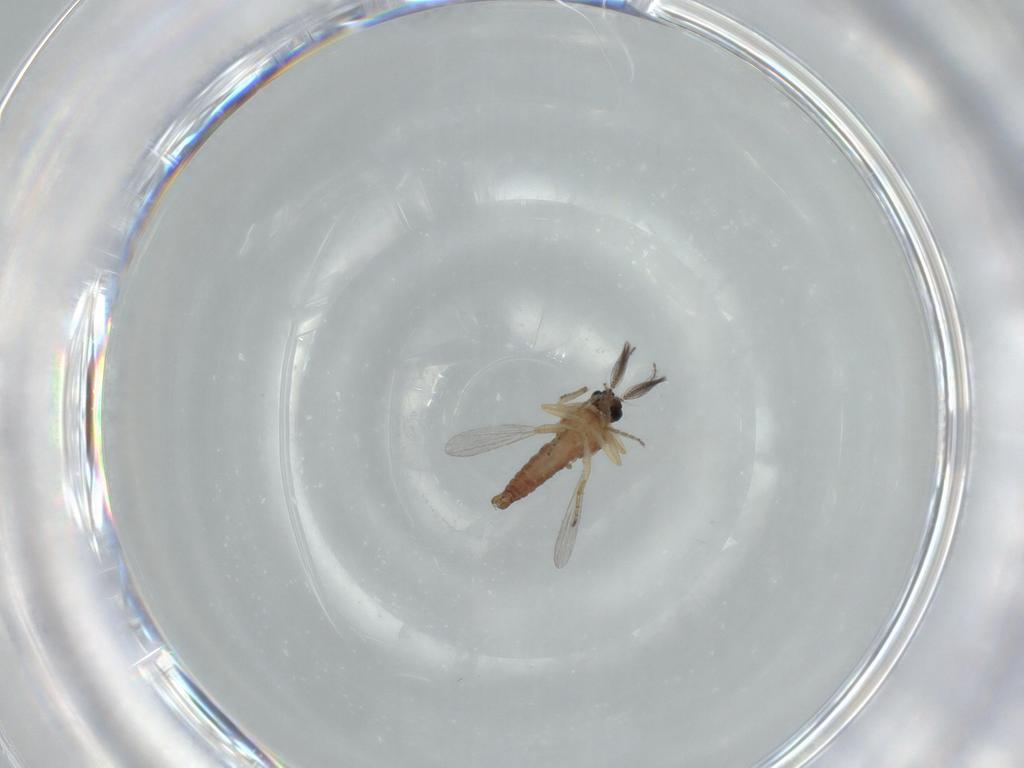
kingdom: Animalia
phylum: Arthropoda
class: Insecta
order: Diptera
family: Ceratopogonidae
